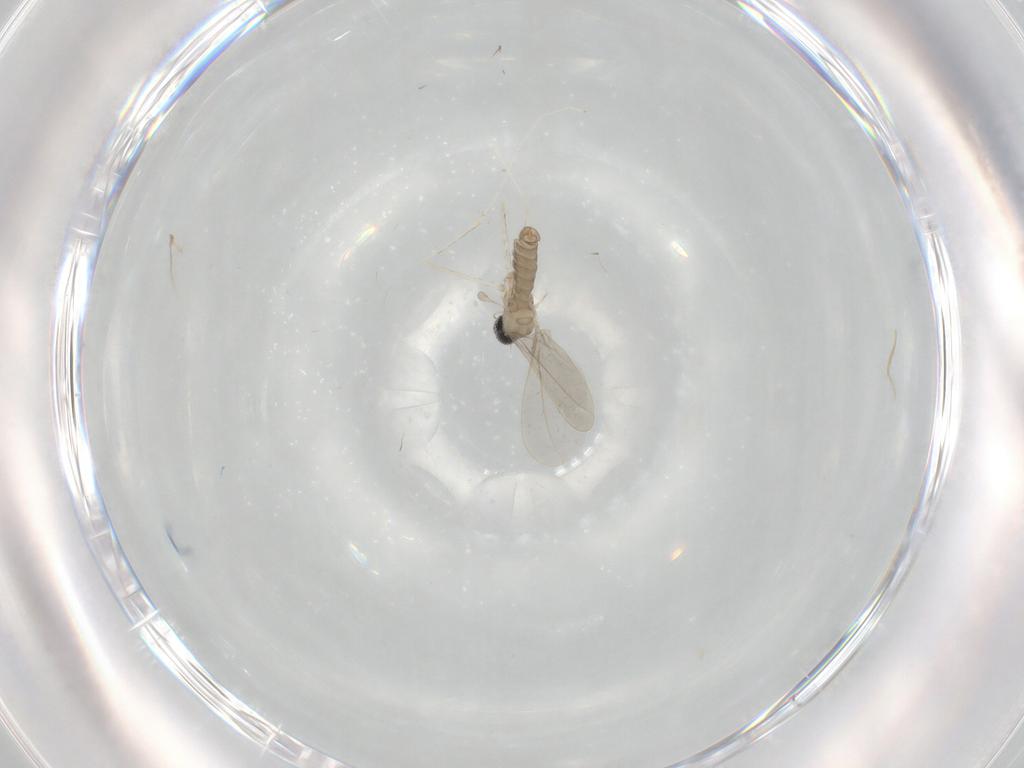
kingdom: Animalia
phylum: Arthropoda
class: Insecta
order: Diptera
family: Cecidomyiidae
